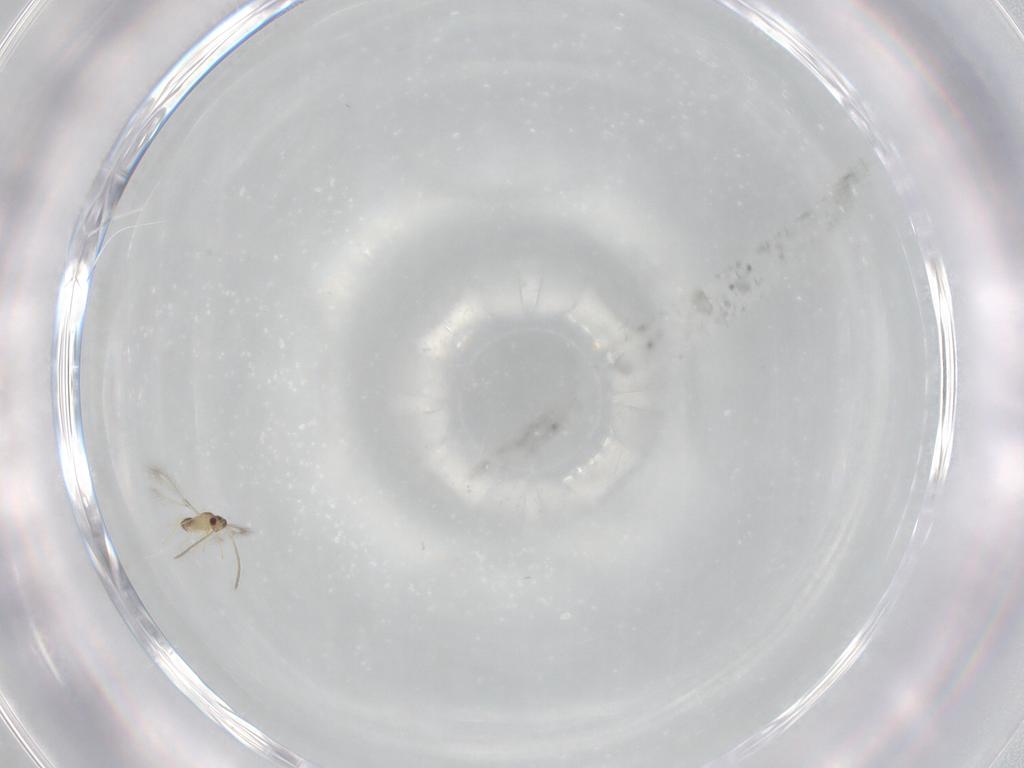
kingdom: Animalia
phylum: Arthropoda
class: Insecta
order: Hymenoptera
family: Mymaridae
